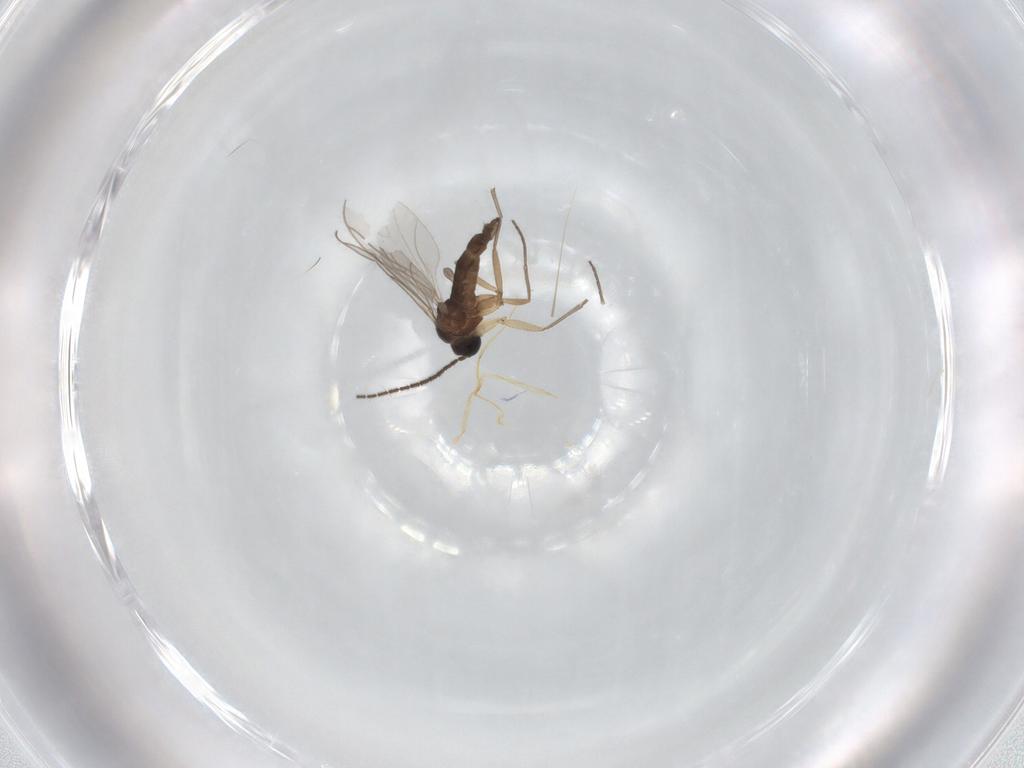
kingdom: Animalia
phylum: Arthropoda
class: Insecta
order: Diptera
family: Sciaridae
